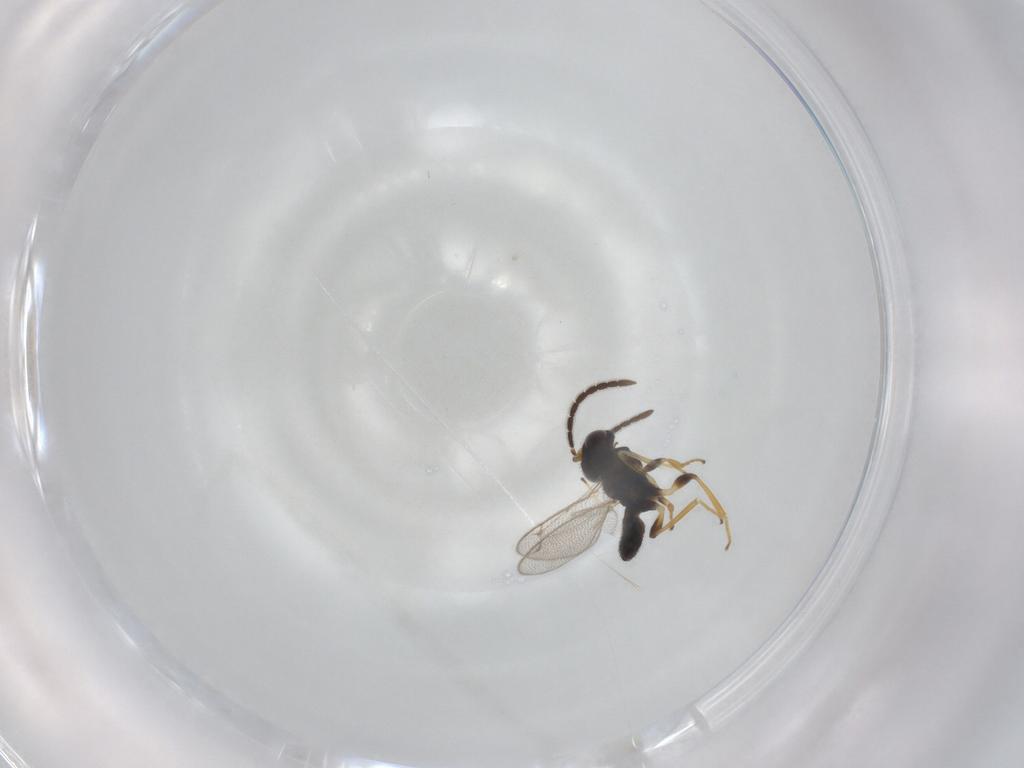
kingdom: Animalia
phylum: Arthropoda
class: Insecta
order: Hymenoptera
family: Eupelmidae
